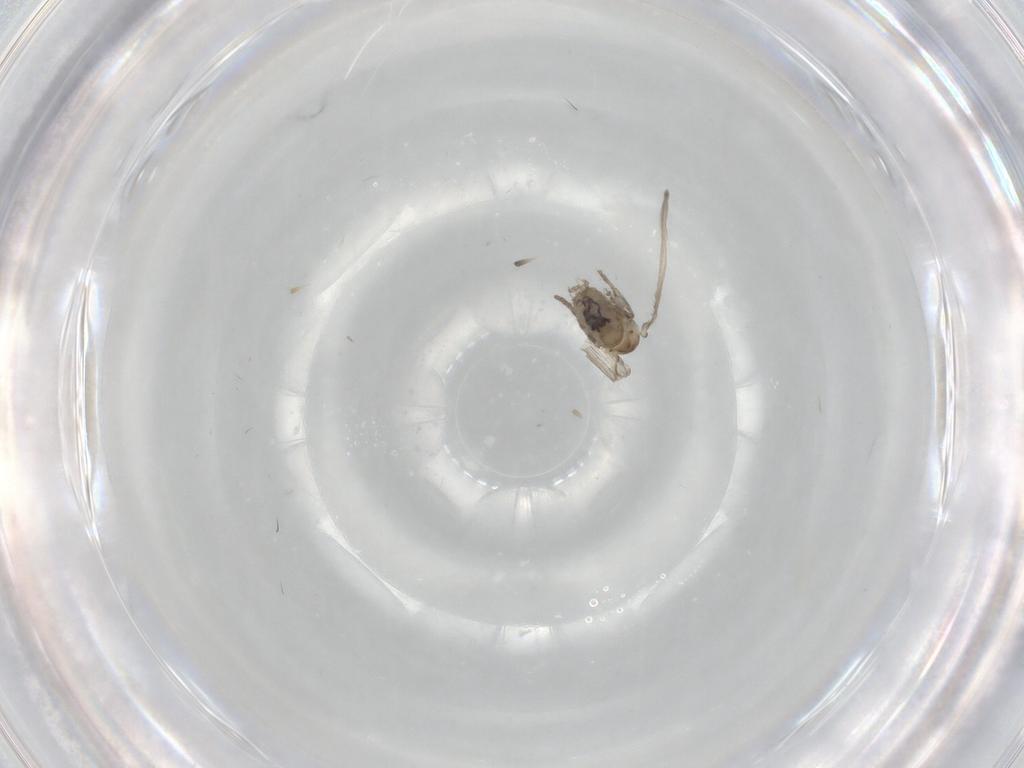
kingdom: Animalia
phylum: Arthropoda
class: Insecta
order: Diptera
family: Psychodidae
